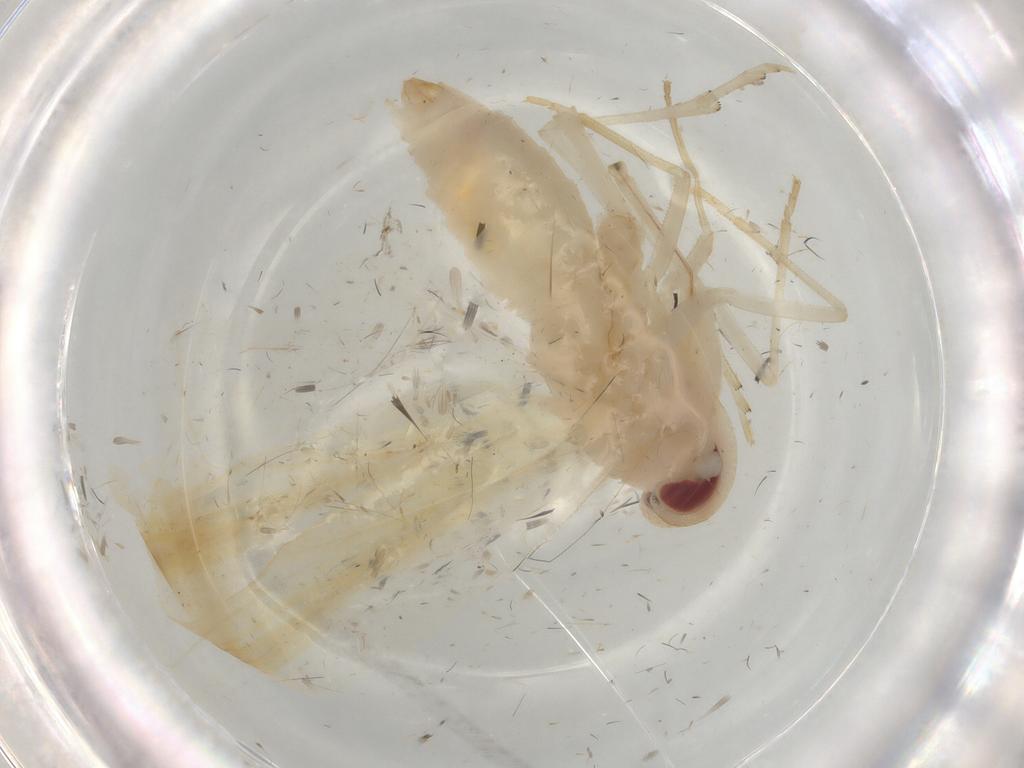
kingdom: Animalia
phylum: Arthropoda
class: Insecta
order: Hemiptera
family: Derbidae
